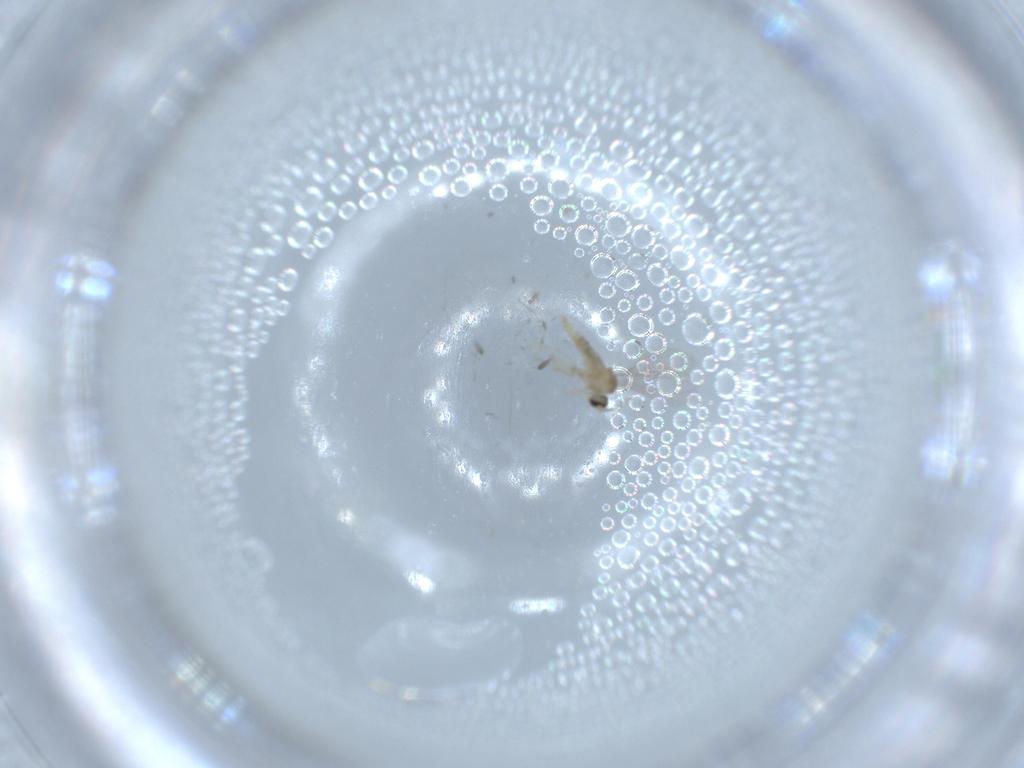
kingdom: Animalia
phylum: Arthropoda
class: Insecta
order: Diptera
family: Cecidomyiidae
